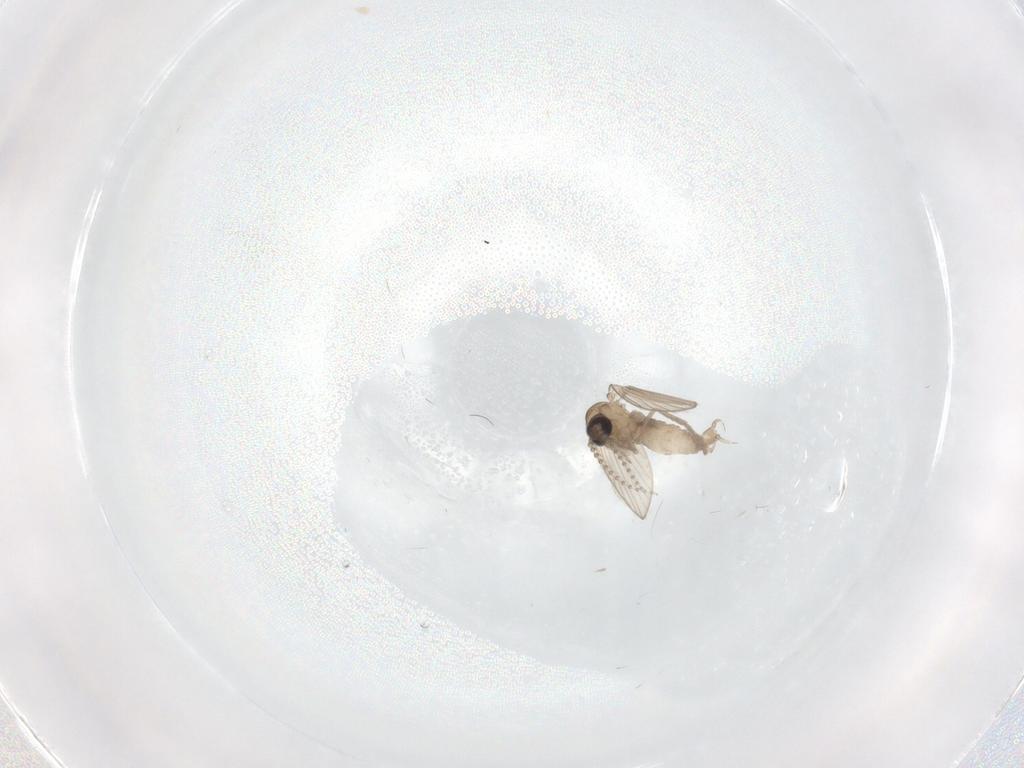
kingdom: Animalia
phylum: Arthropoda
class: Insecta
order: Diptera
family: Psychodidae
